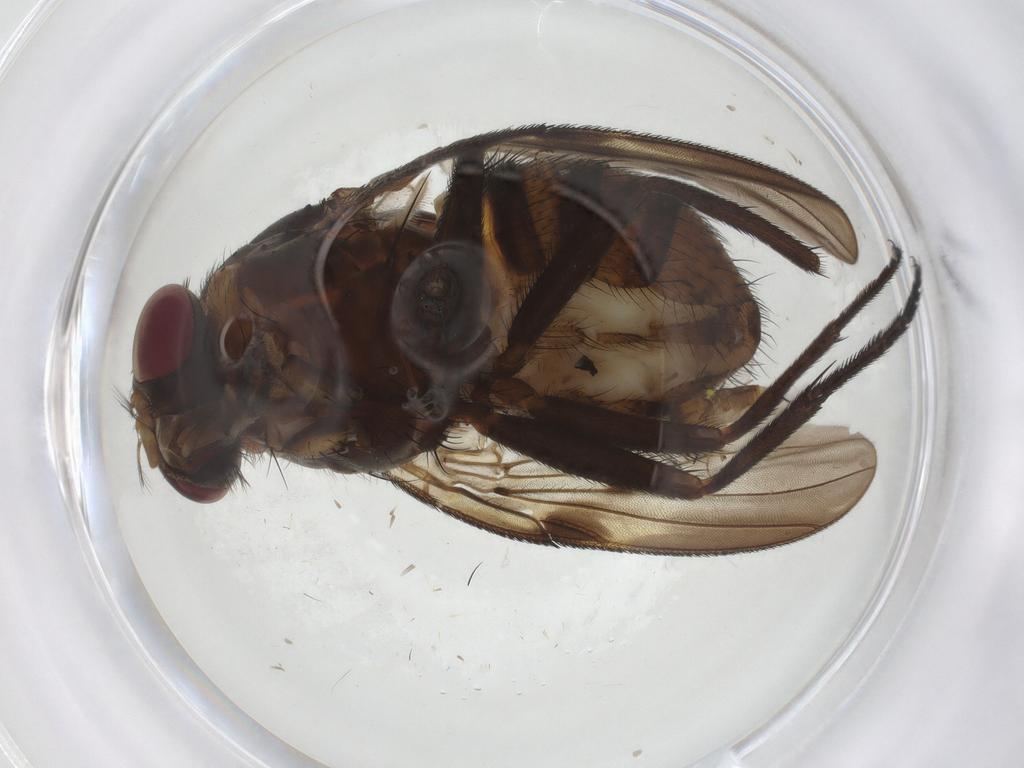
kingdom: Animalia
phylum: Arthropoda
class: Insecta
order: Diptera
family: Muscidae
